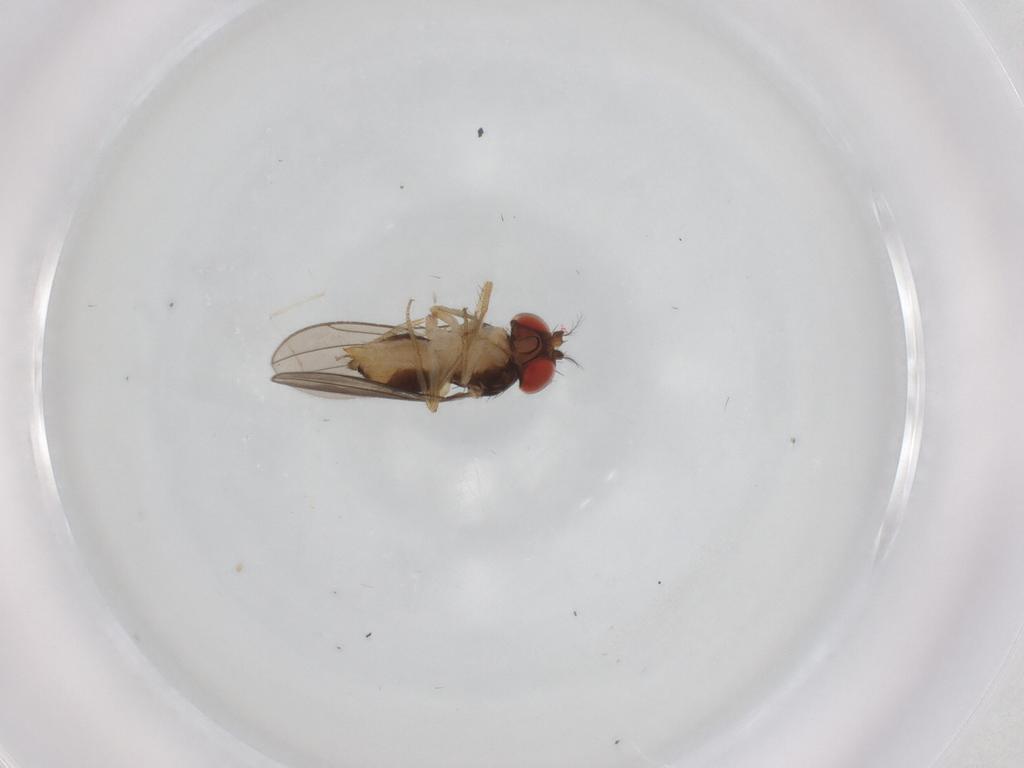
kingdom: Animalia
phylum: Arthropoda
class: Insecta
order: Diptera
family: Drosophilidae
